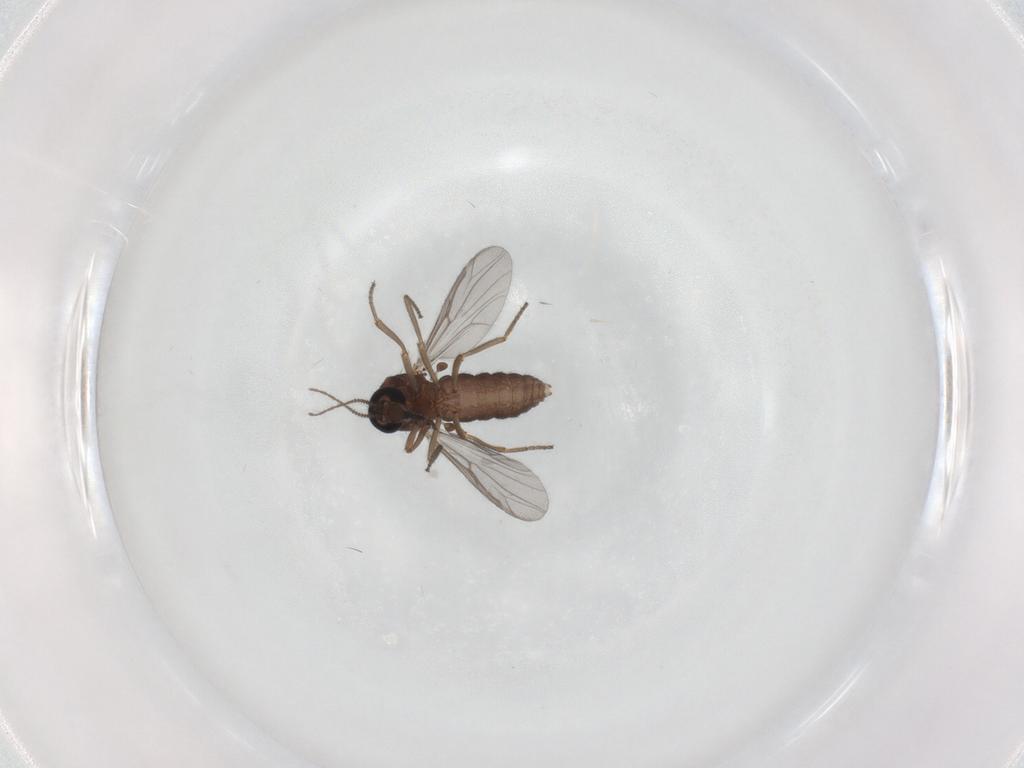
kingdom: Animalia
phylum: Arthropoda
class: Insecta
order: Diptera
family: Ceratopogonidae
